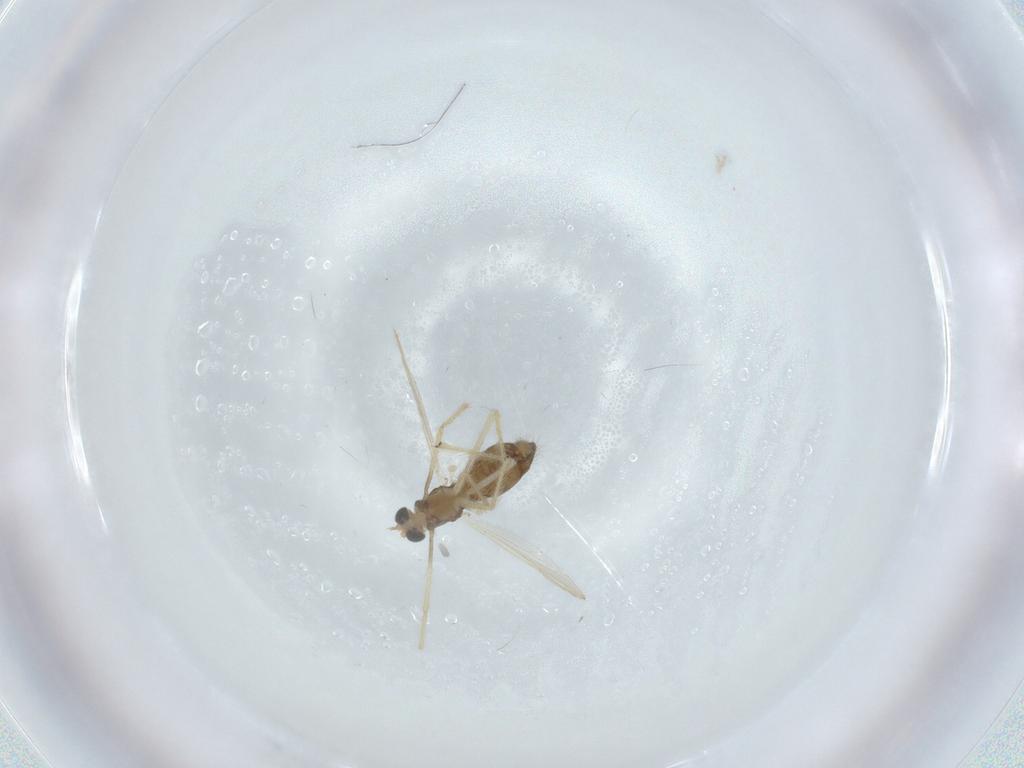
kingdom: Animalia
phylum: Arthropoda
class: Insecta
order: Diptera
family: Chironomidae
